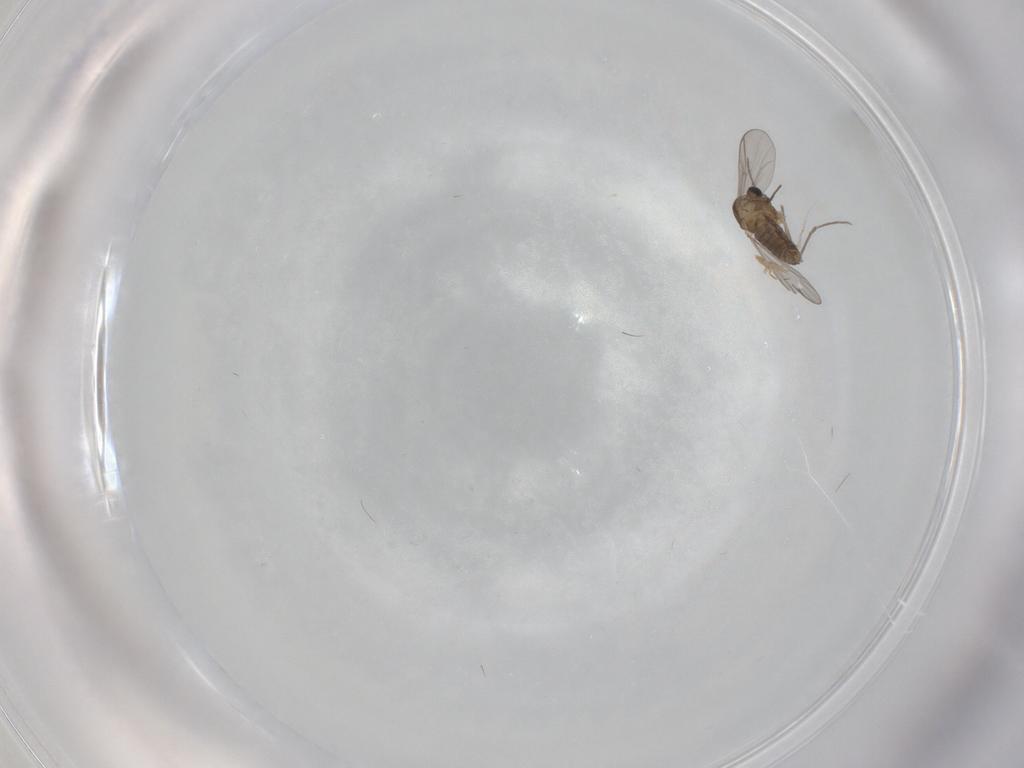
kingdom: Animalia
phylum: Arthropoda
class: Insecta
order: Diptera
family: Chironomidae
